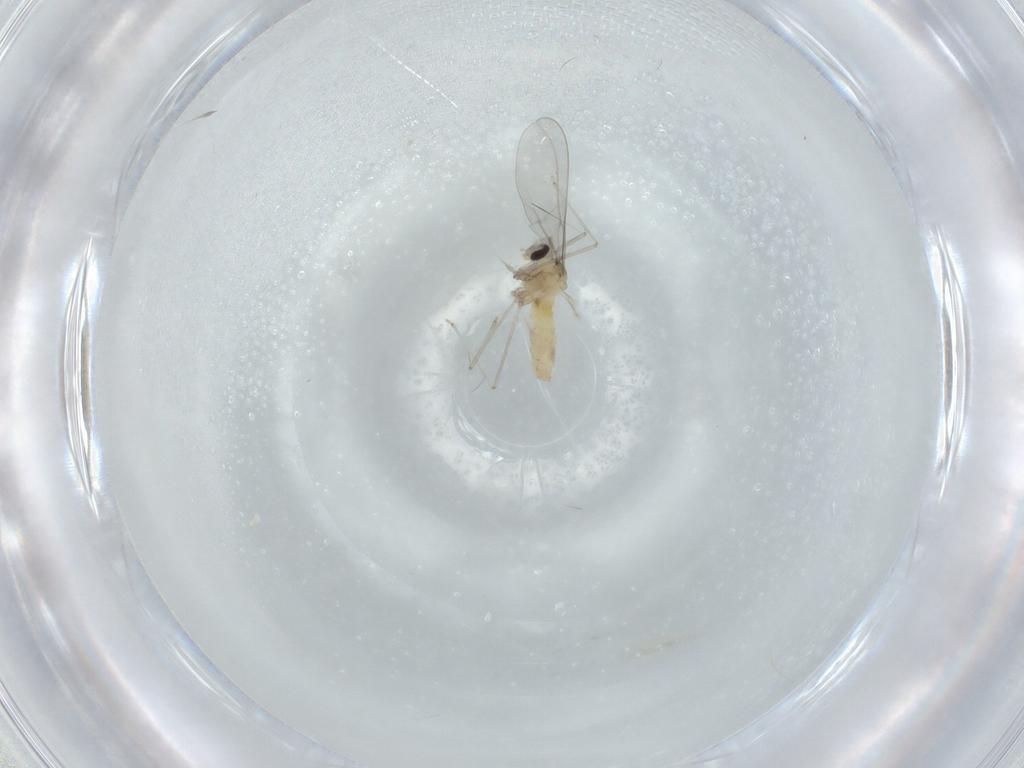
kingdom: Animalia
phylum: Arthropoda
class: Insecta
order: Diptera
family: Cecidomyiidae
